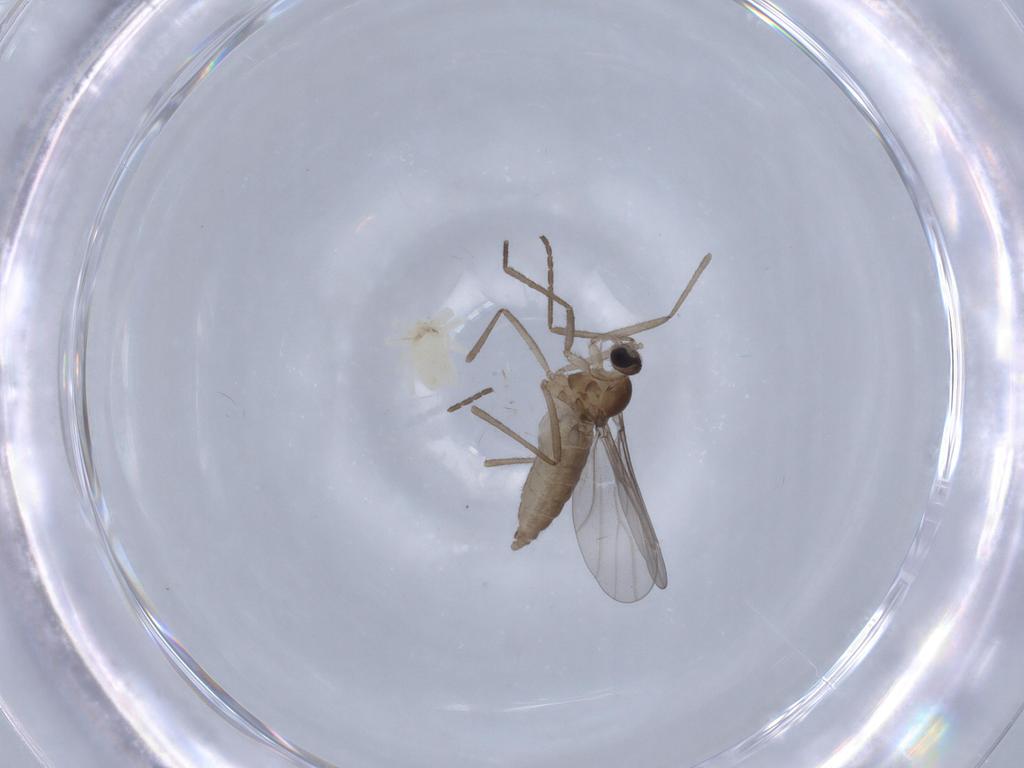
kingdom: Animalia
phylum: Arthropoda
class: Insecta
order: Diptera
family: Cecidomyiidae
